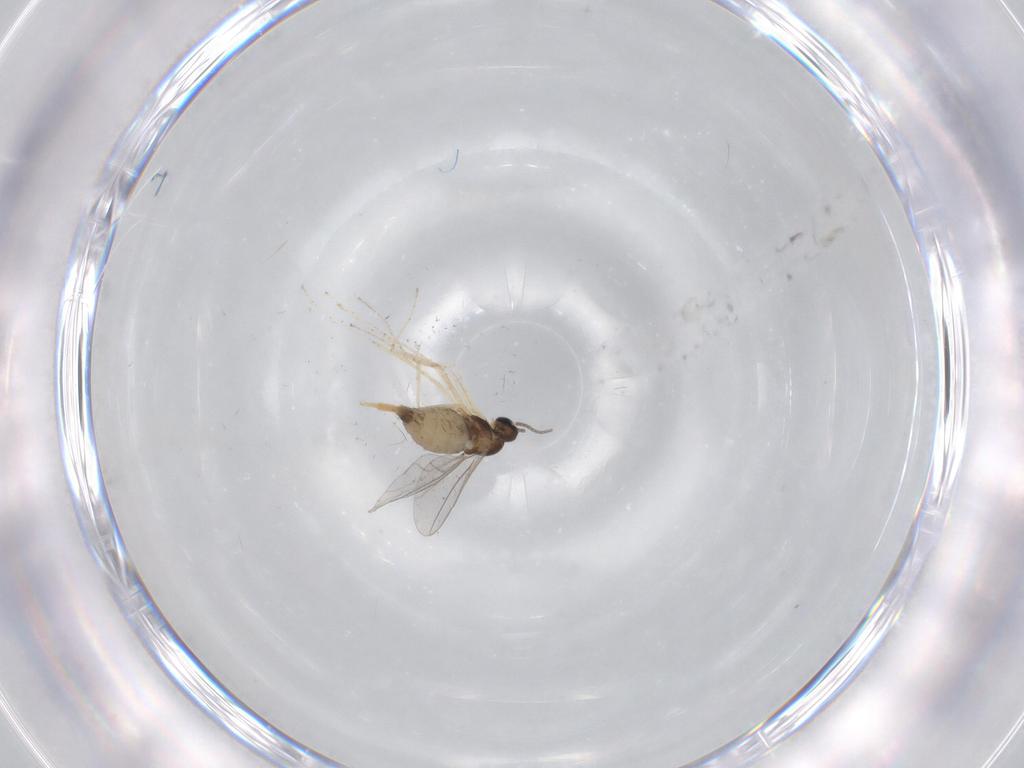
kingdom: Animalia
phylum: Arthropoda
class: Insecta
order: Diptera
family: Cecidomyiidae
